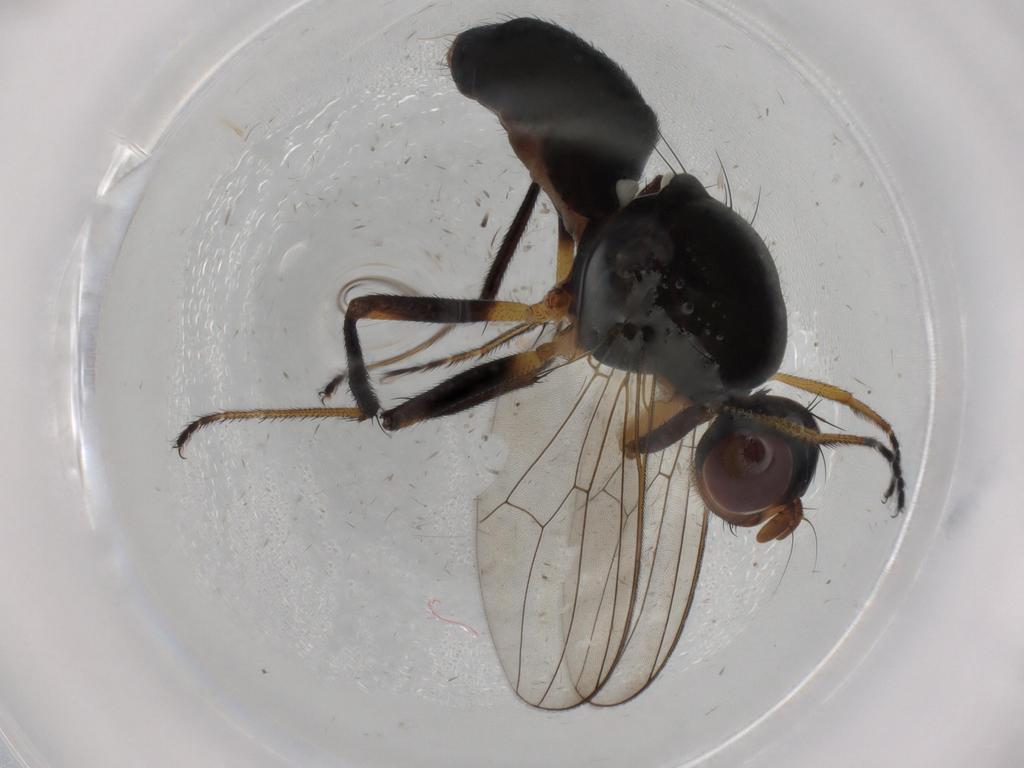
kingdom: Animalia
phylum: Arthropoda
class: Insecta
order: Diptera
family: Sepsidae
